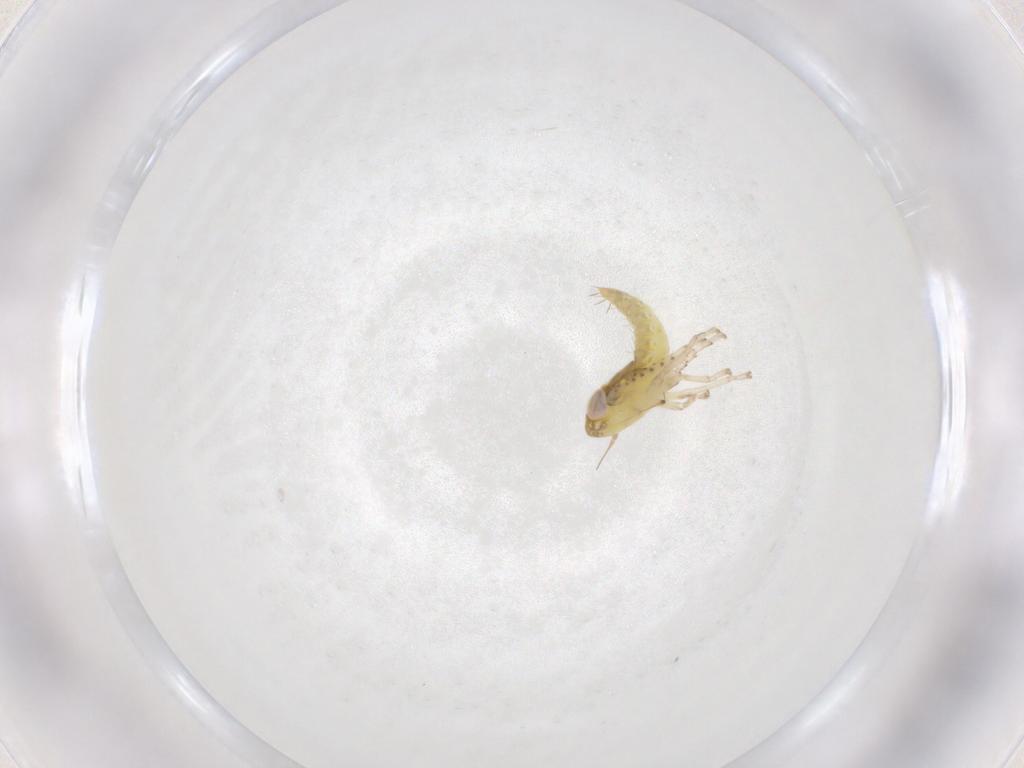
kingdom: Animalia
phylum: Arthropoda
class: Insecta
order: Hemiptera
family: Cicadellidae
